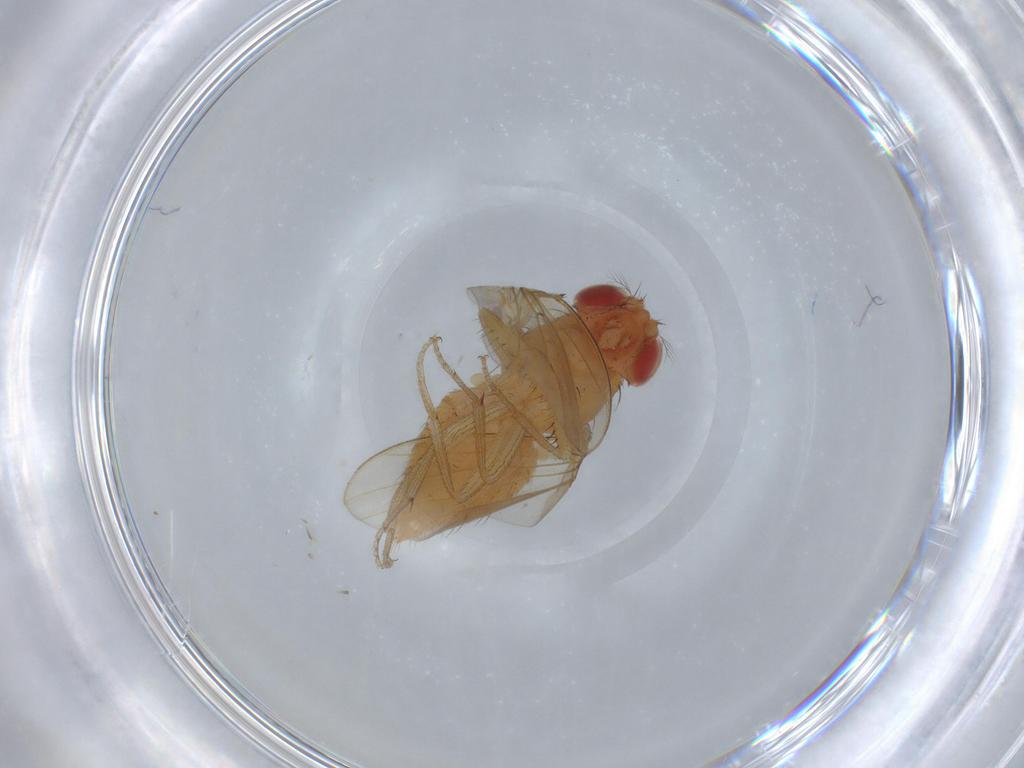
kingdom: Animalia
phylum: Arthropoda
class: Insecta
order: Diptera
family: Drosophilidae
